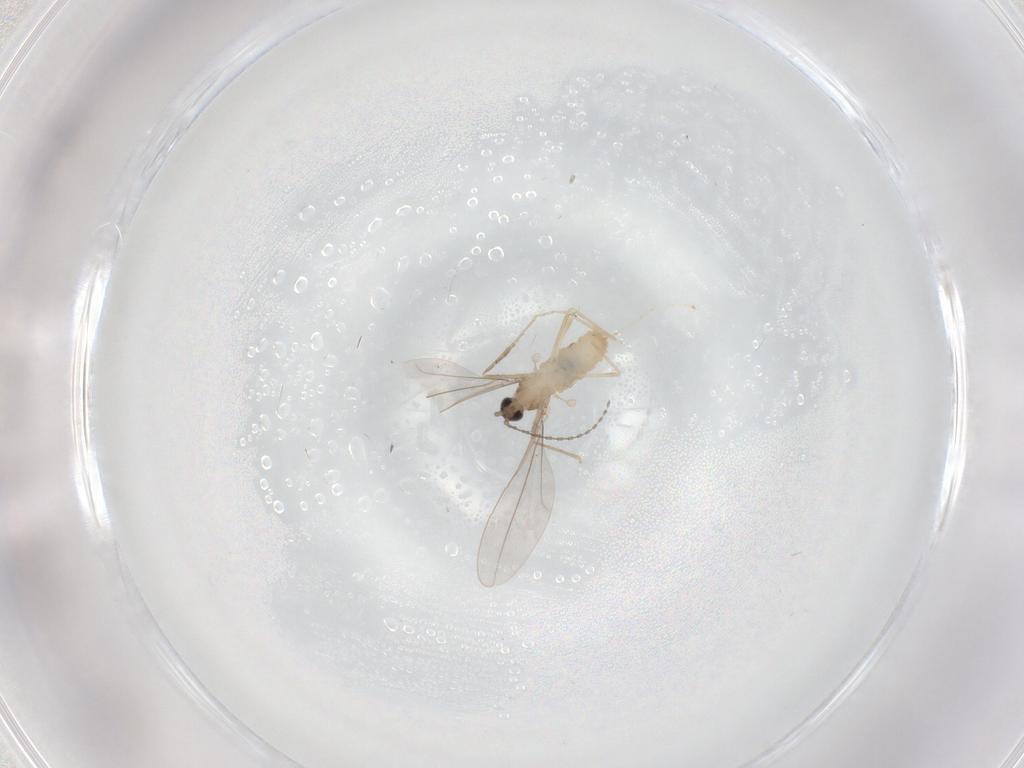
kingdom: Animalia
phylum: Arthropoda
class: Insecta
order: Diptera
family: Cecidomyiidae
